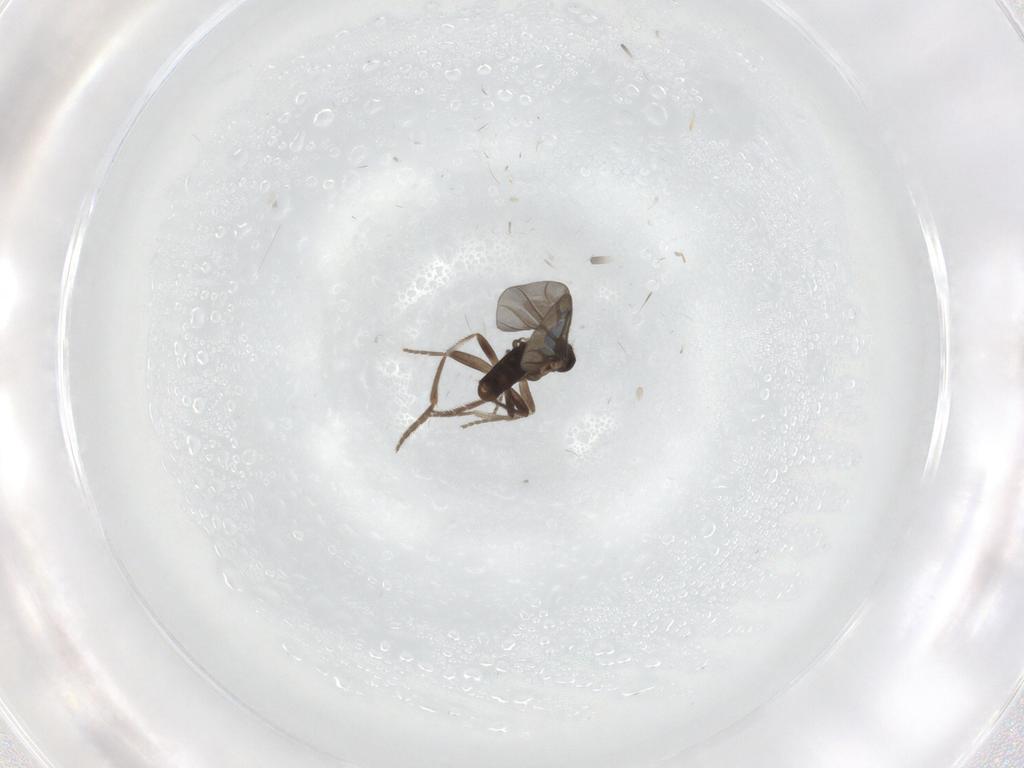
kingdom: Animalia
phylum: Arthropoda
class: Insecta
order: Diptera
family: Phoridae
